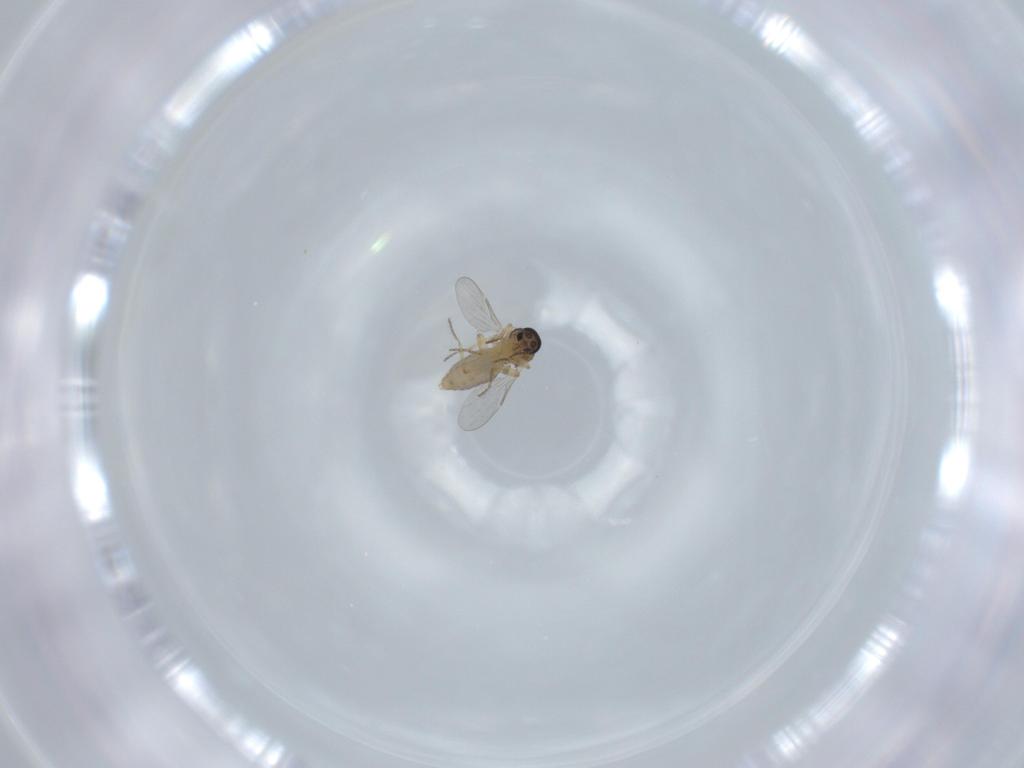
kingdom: Animalia
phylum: Arthropoda
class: Insecta
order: Diptera
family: Ceratopogonidae
